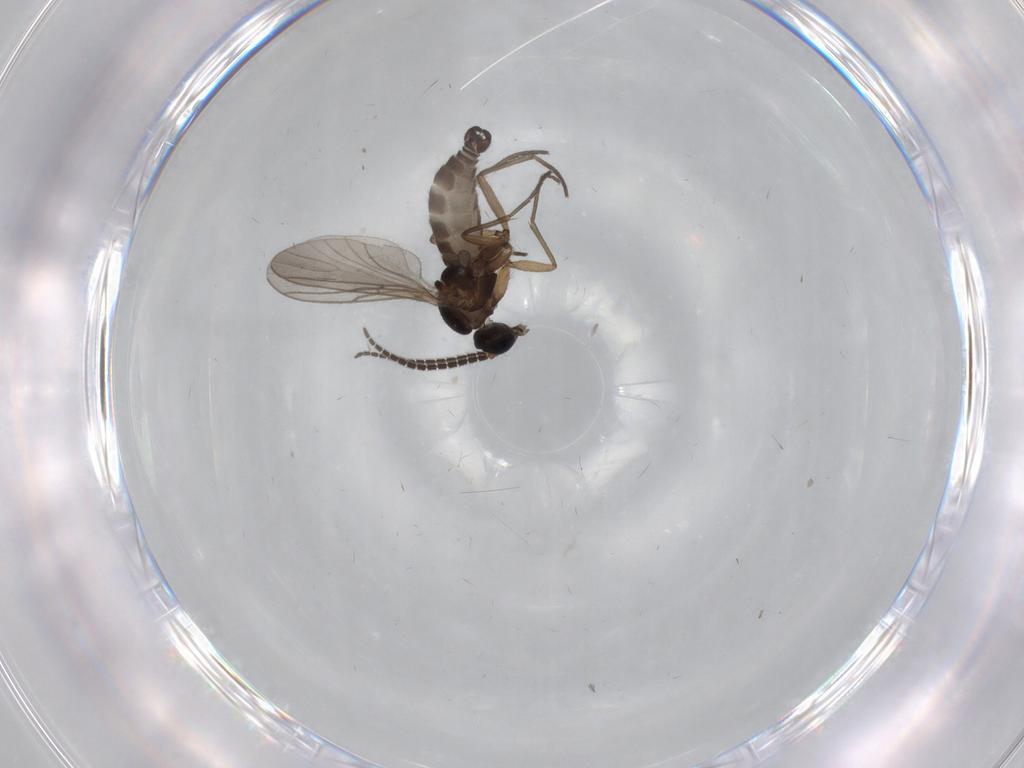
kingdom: Animalia
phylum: Arthropoda
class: Insecta
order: Diptera
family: Sciaridae
